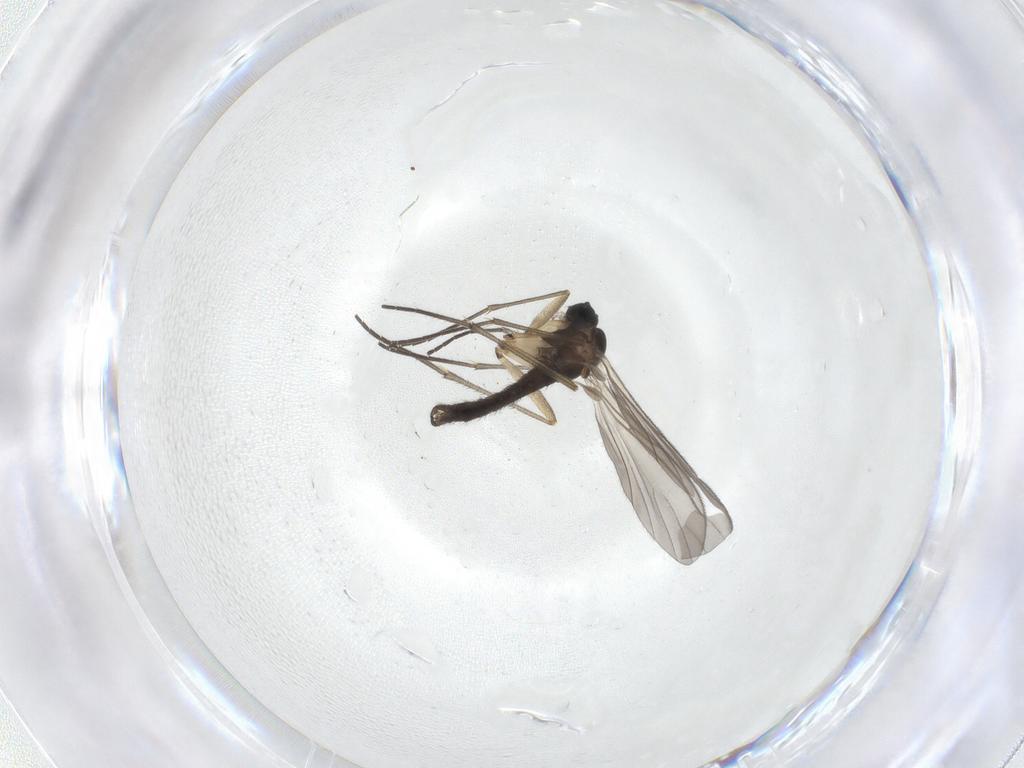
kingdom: Animalia
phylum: Arthropoda
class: Insecta
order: Diptera
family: Sciaridae
